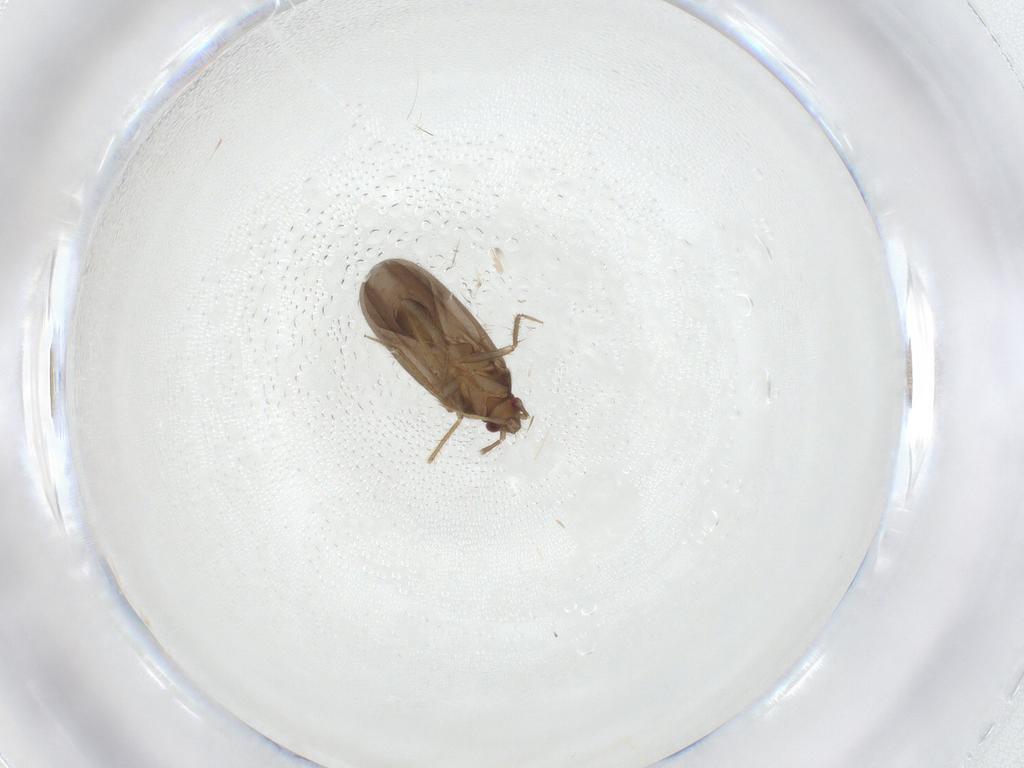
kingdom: Animalia
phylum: Arthropoda
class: Insecta
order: Hemiptera
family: Ceratocombidae
